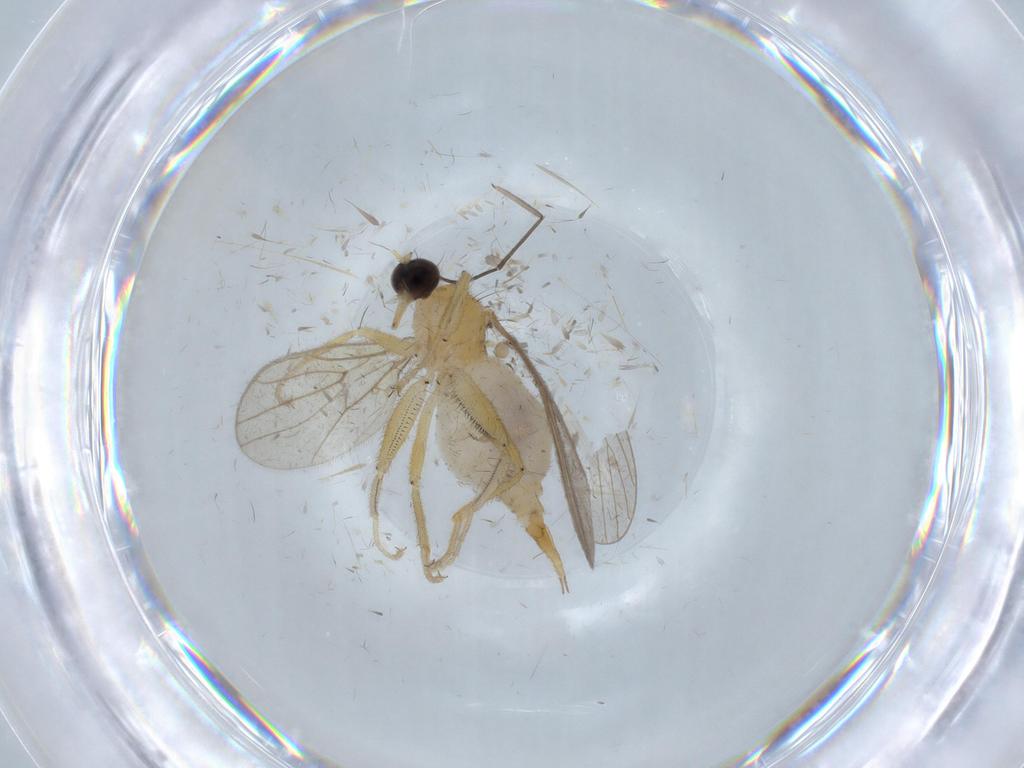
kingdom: Animalia
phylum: Arthropoda
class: Insecta
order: Diptera
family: Hybotidae
